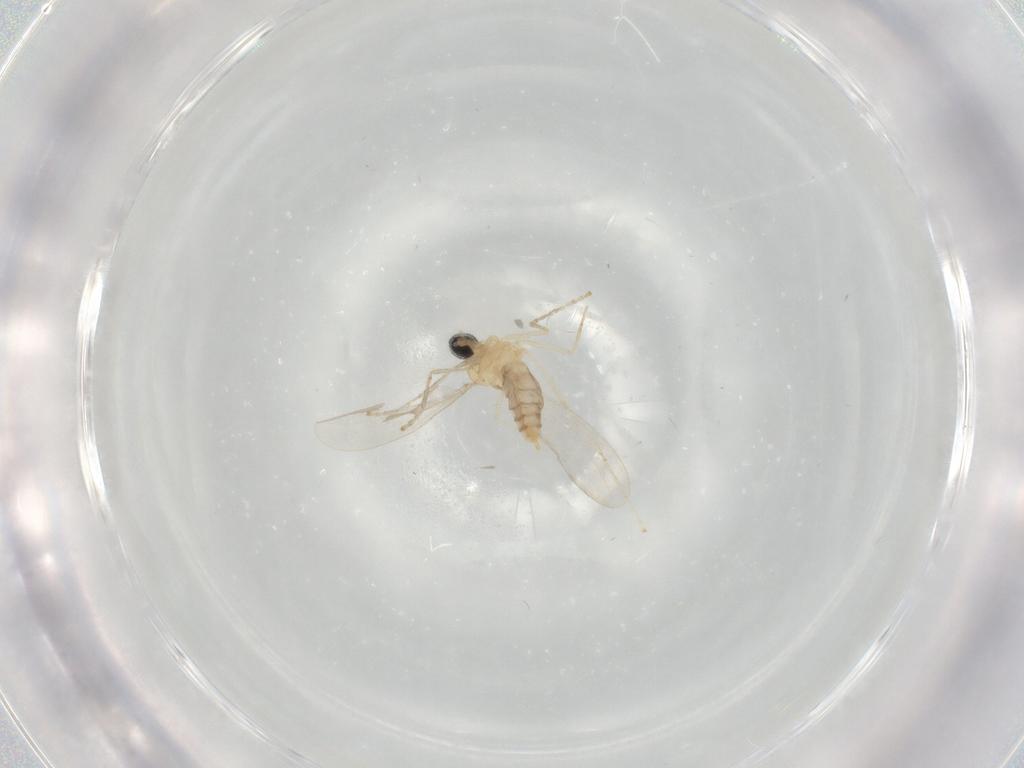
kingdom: Animalia
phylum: Arthropoda
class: Insecta
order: Diptera
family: Cecidomyiidae
